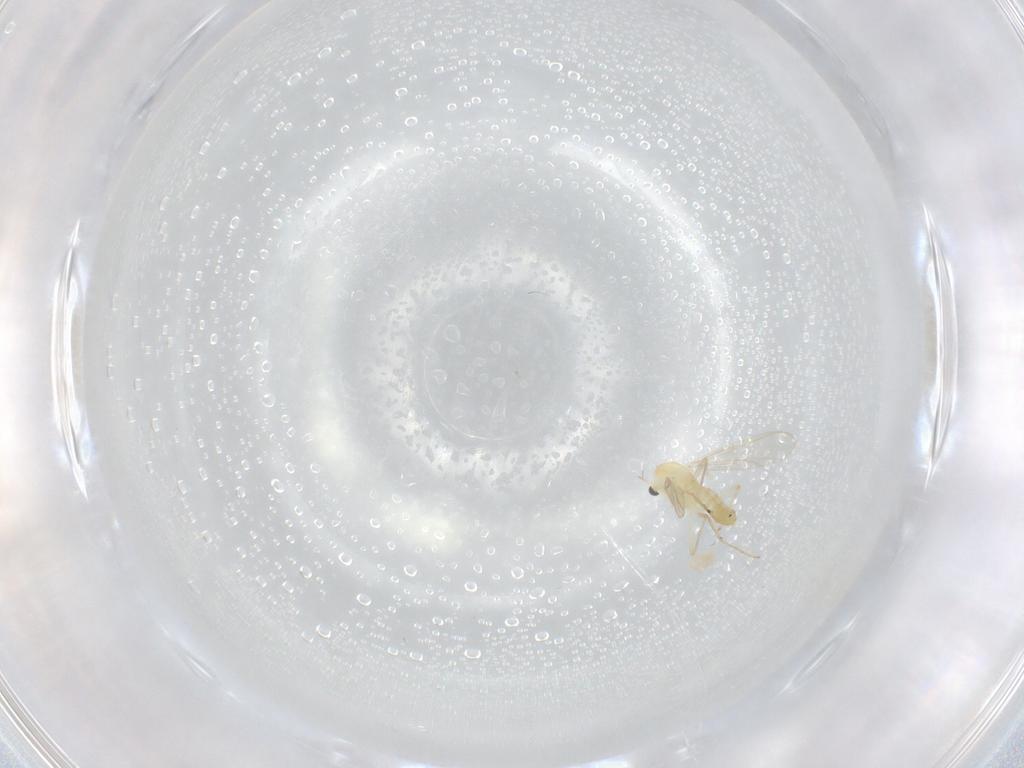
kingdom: Animalia
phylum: Arthropoda
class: Insecta
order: Diptera
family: Chironomidae
